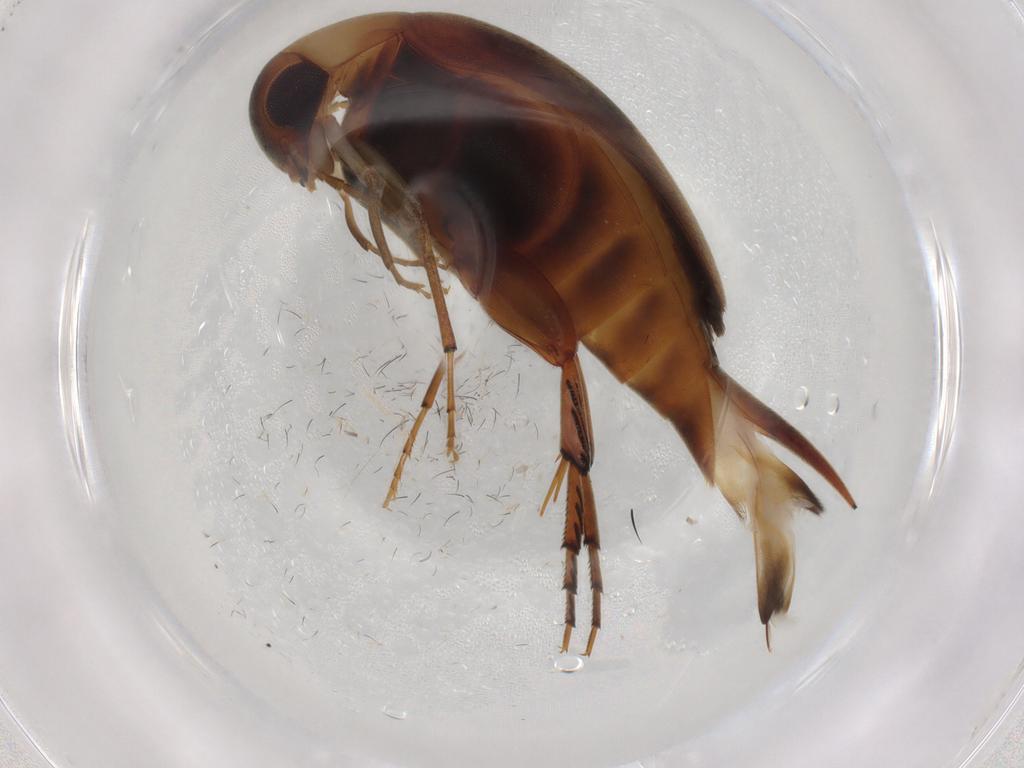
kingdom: Animalia
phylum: Arthropoda
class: Insecta
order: Coleoptera
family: Mordellidae
